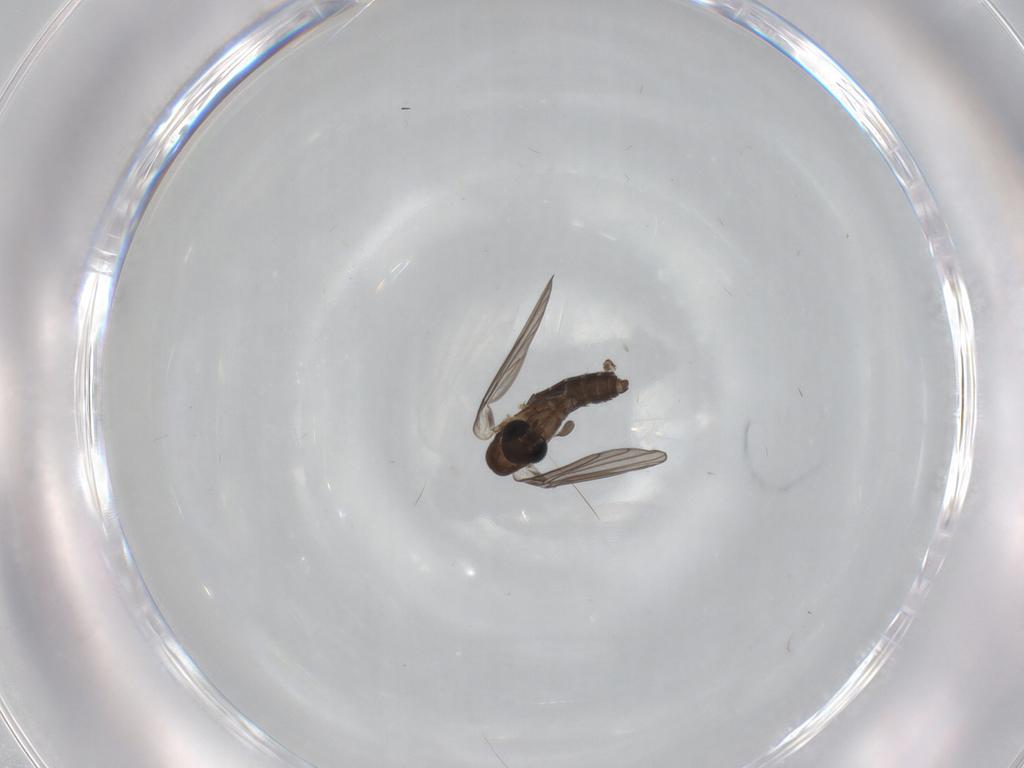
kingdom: Animalia
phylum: Arthropoda
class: Insecta
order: Diptera
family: Psychodidae
